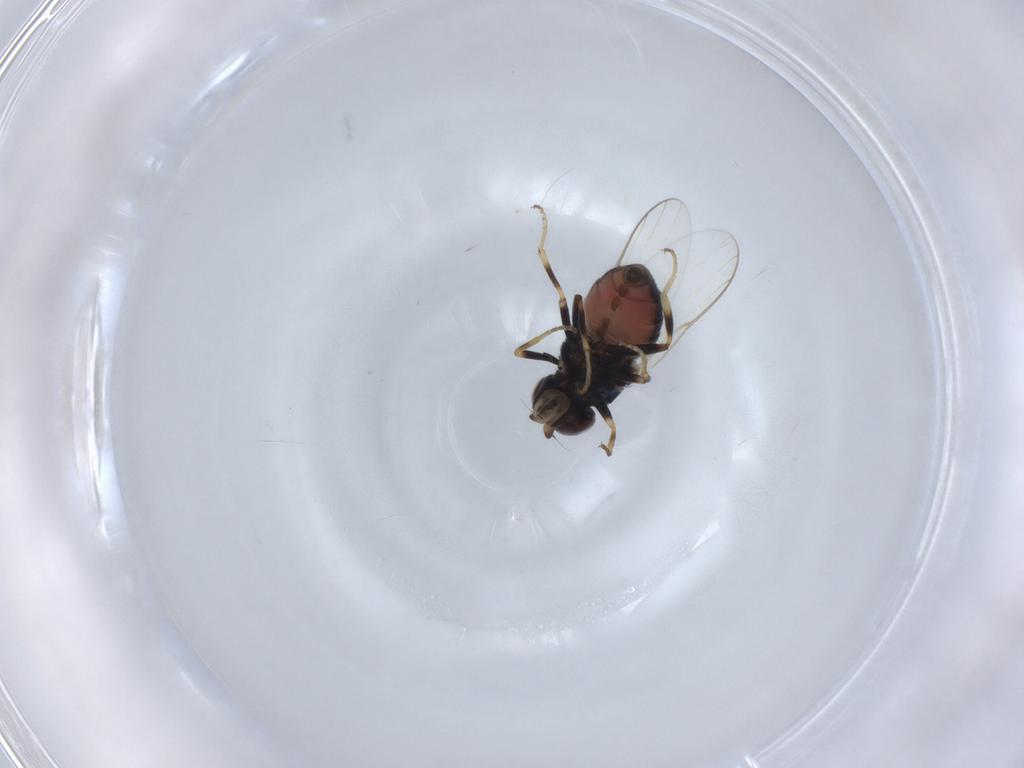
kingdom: Animalia
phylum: Arthropoda
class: Insecta
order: Diptera
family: Chloropidae
